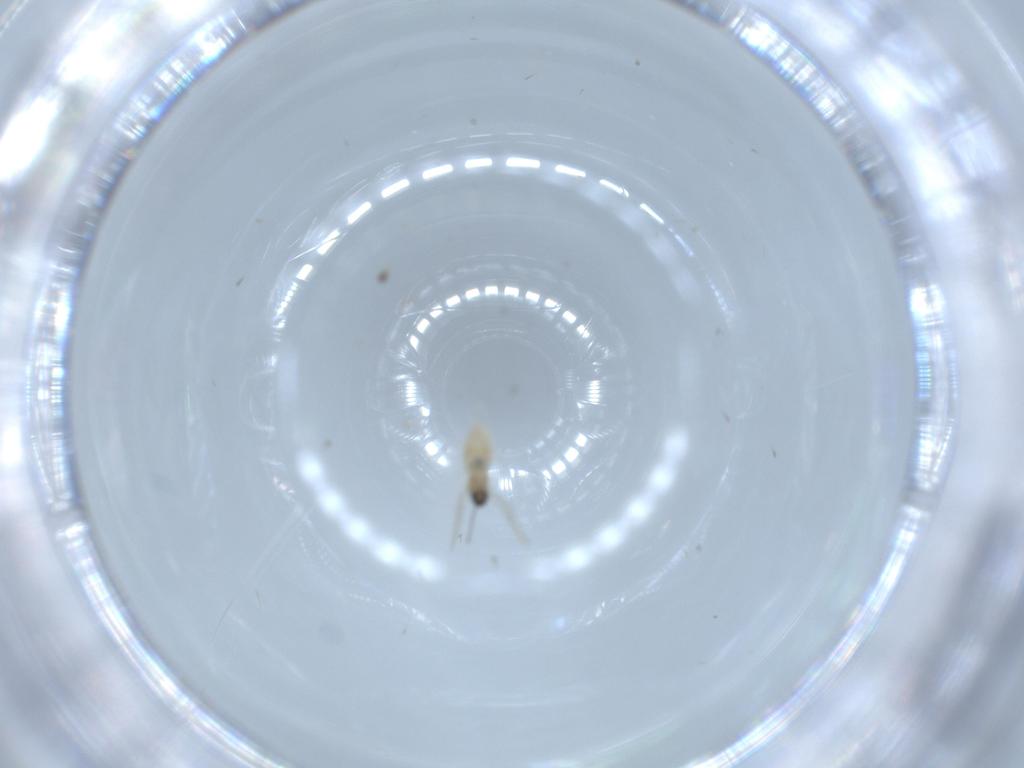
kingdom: Animalia
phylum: Arthropoda
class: Insecta
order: Diptera
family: Cecidomyiidae
